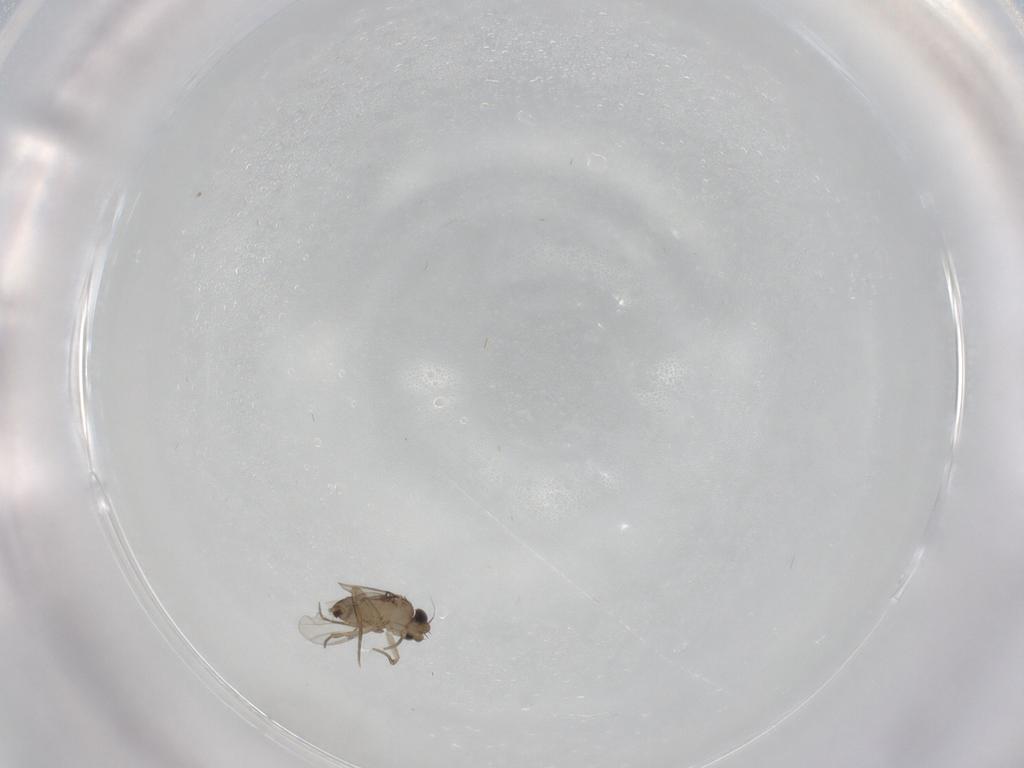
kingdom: Animalia
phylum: Arthropoda
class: Insecta
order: Diptera
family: Phoridae
